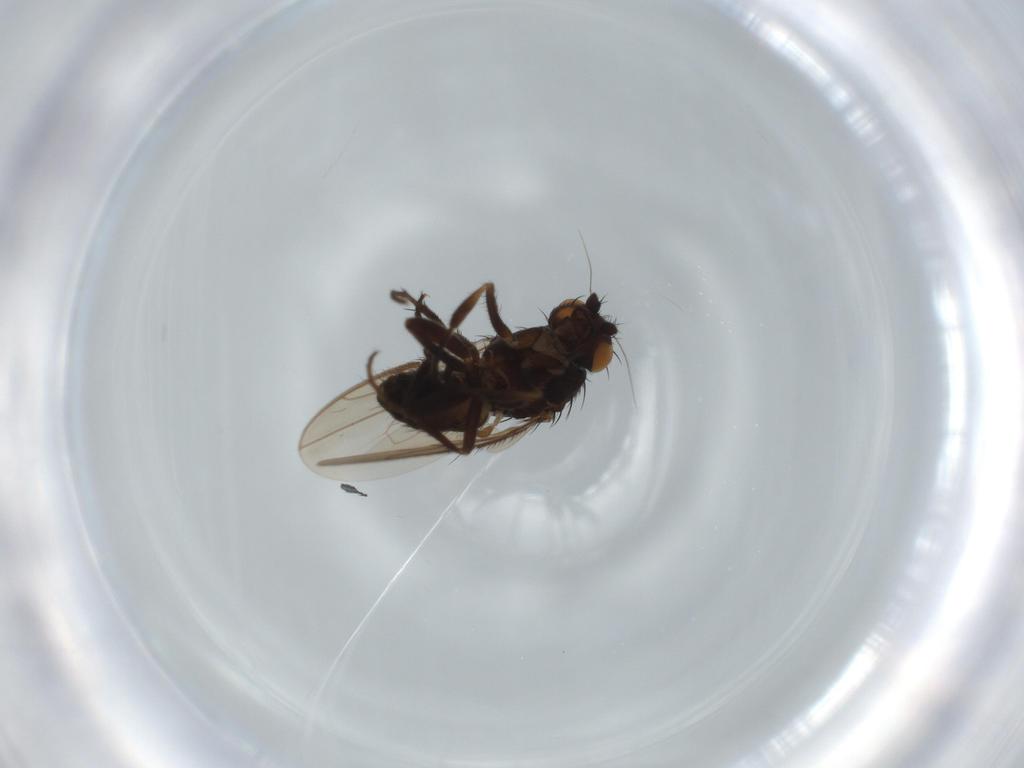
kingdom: Animalia
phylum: Arthropoda
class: Insecta
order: Diptera
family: Sphaeroceridae
